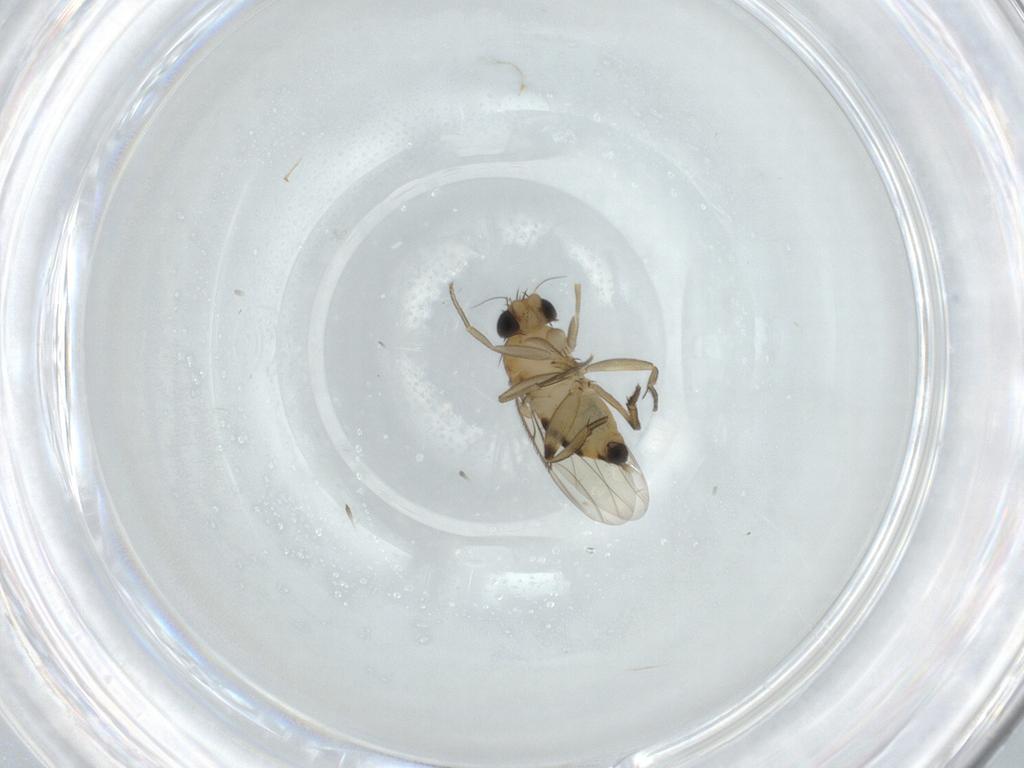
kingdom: Animalia
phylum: Arthropoda
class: Insecta
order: Diptera
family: Phoridae
